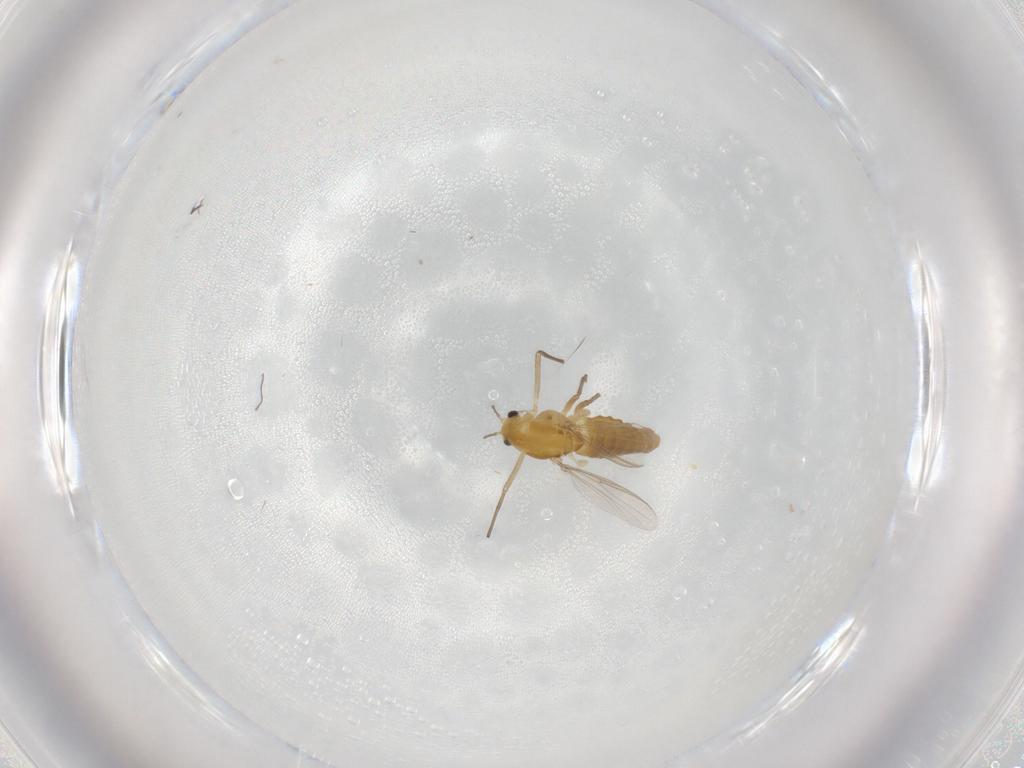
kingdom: Animalia
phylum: Arthropoda
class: Insecta
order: Diptera
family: Chironomidae
